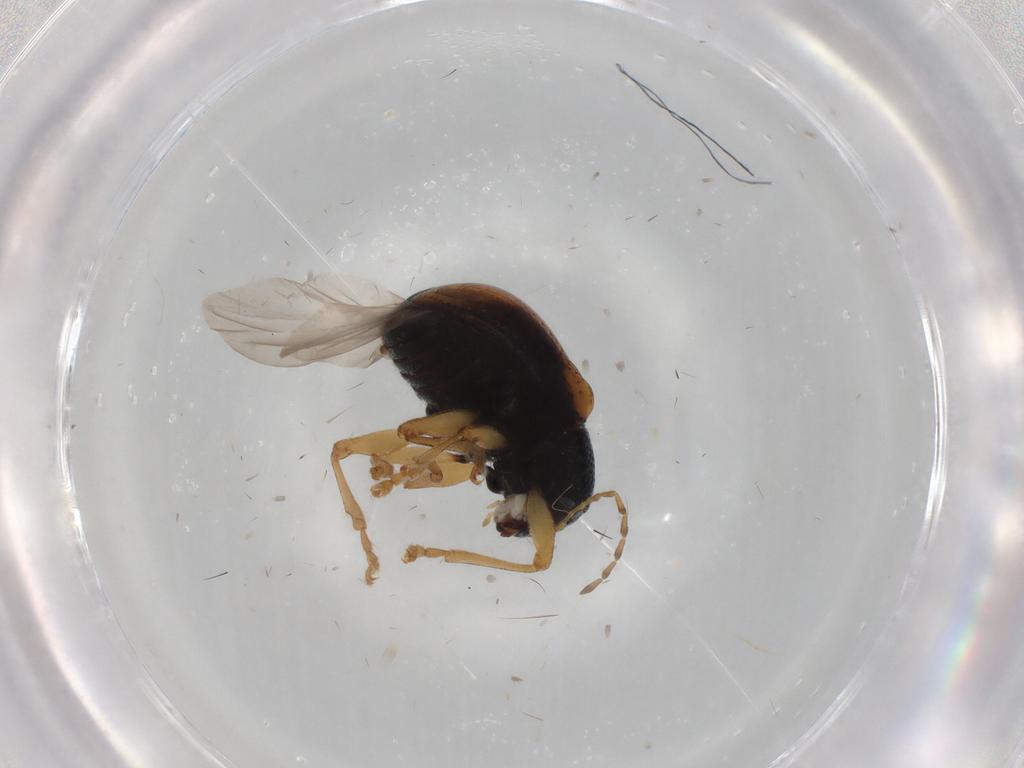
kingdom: Animalia
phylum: Arthropoda
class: Insecta
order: Coleoptera
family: Chrysomelidae
